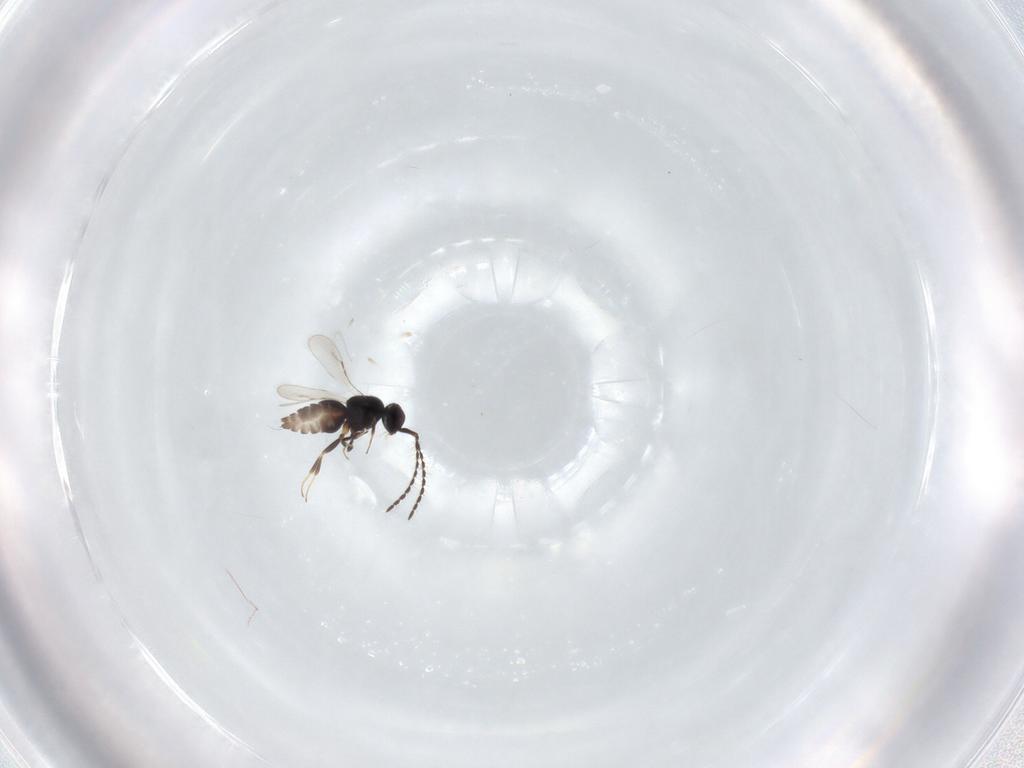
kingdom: Animalia
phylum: Arthropoda
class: Insecta
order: Hymenoptera
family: Ceraphronidae
